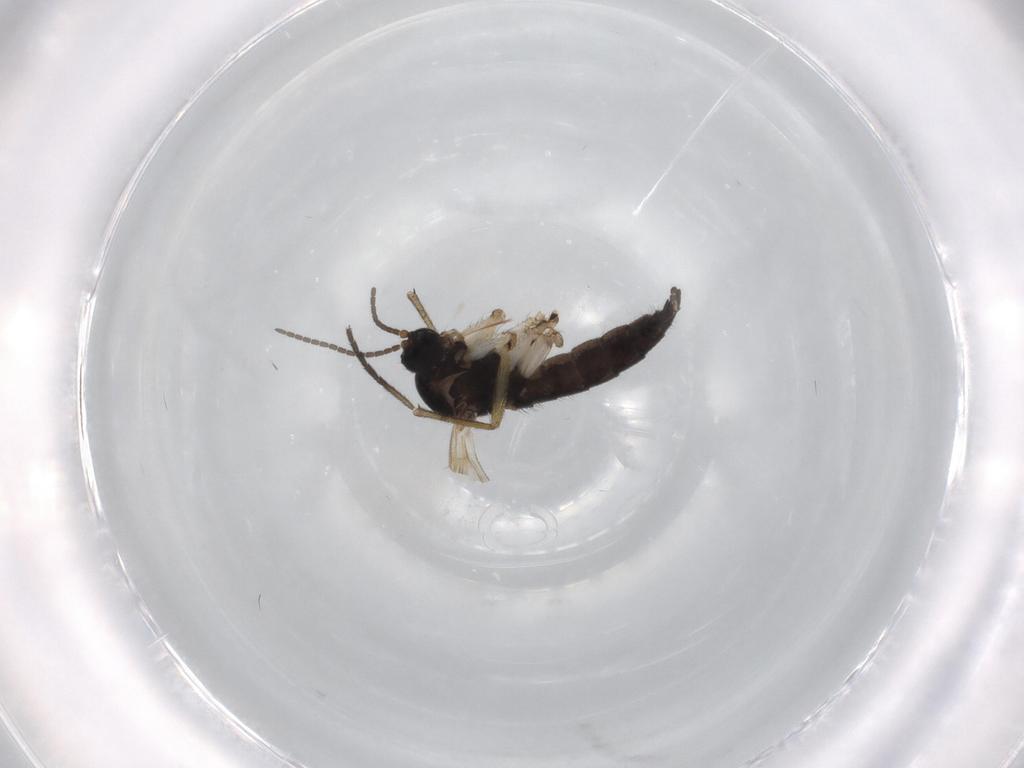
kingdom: Animalia
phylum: Arthropoda
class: Insecta
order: Diptera
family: Sciaridae
